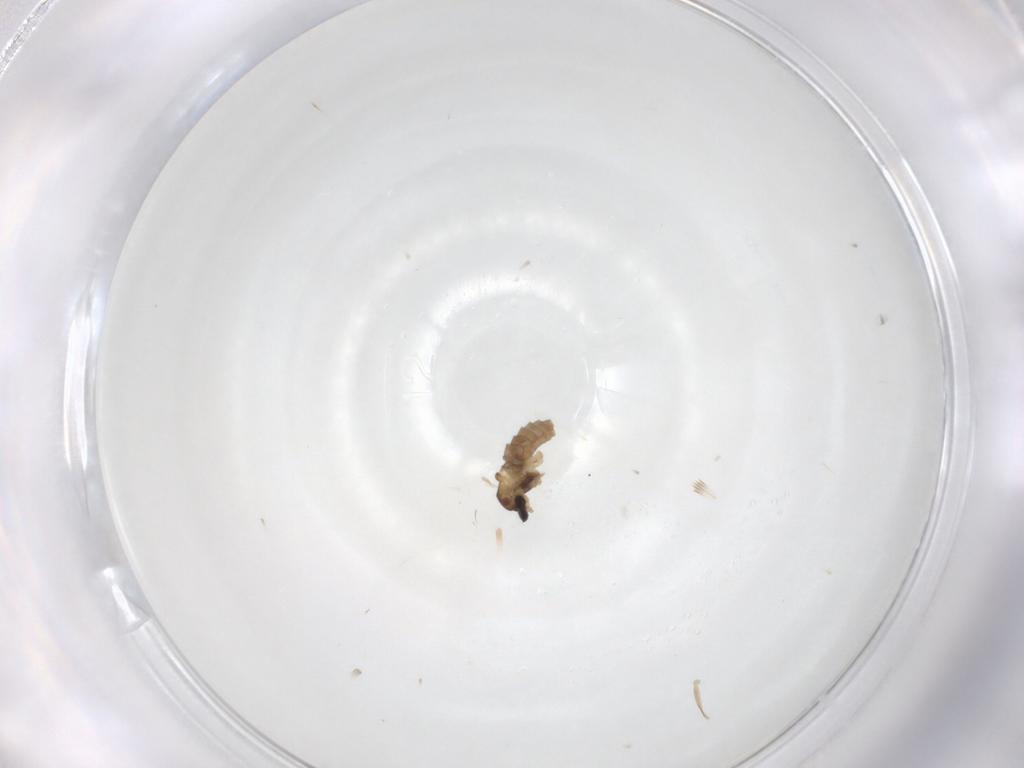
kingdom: Animalia
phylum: Arthropoda
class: Insecta
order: Diptera
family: Cecidomyiidae
